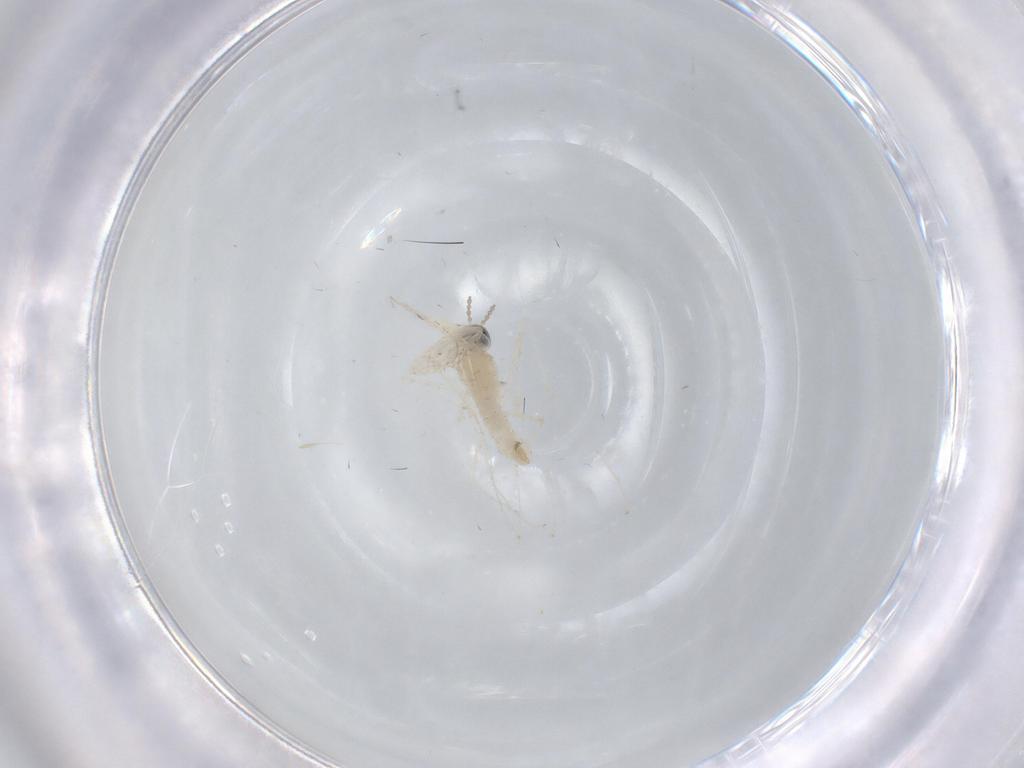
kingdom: Animalia
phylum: Arthropoda
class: Insecta
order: Diptera
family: Cecidomyiidae
